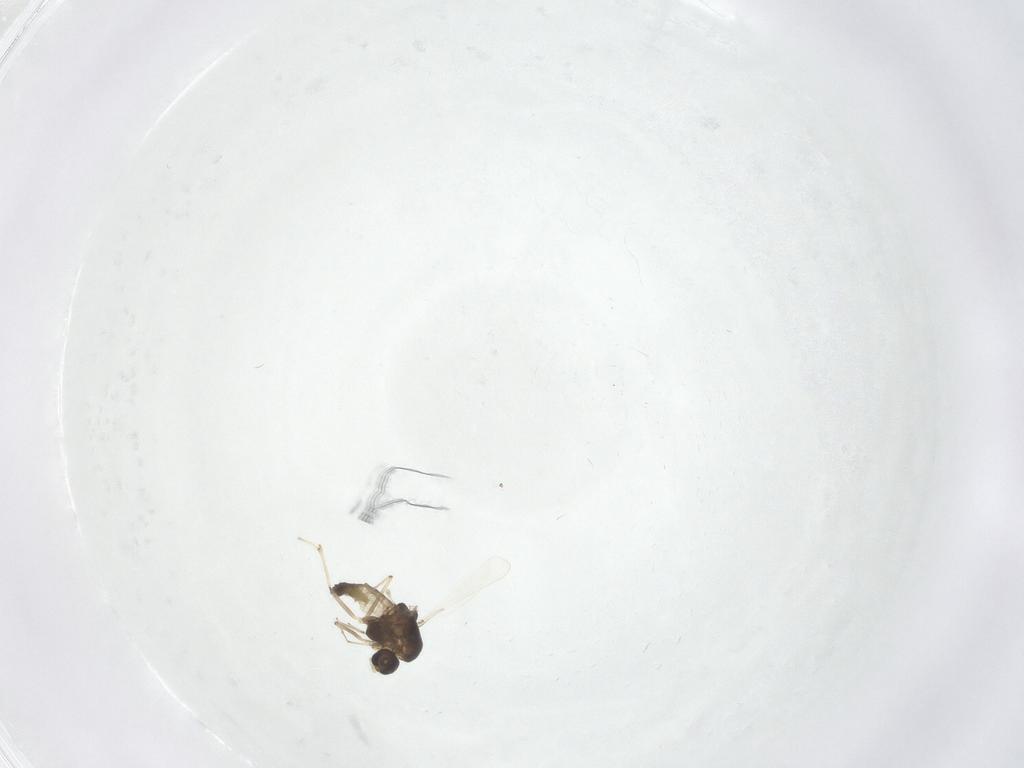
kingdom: Animalia
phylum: Arthropoda
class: Insecta
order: Diptera
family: Chironomidae
